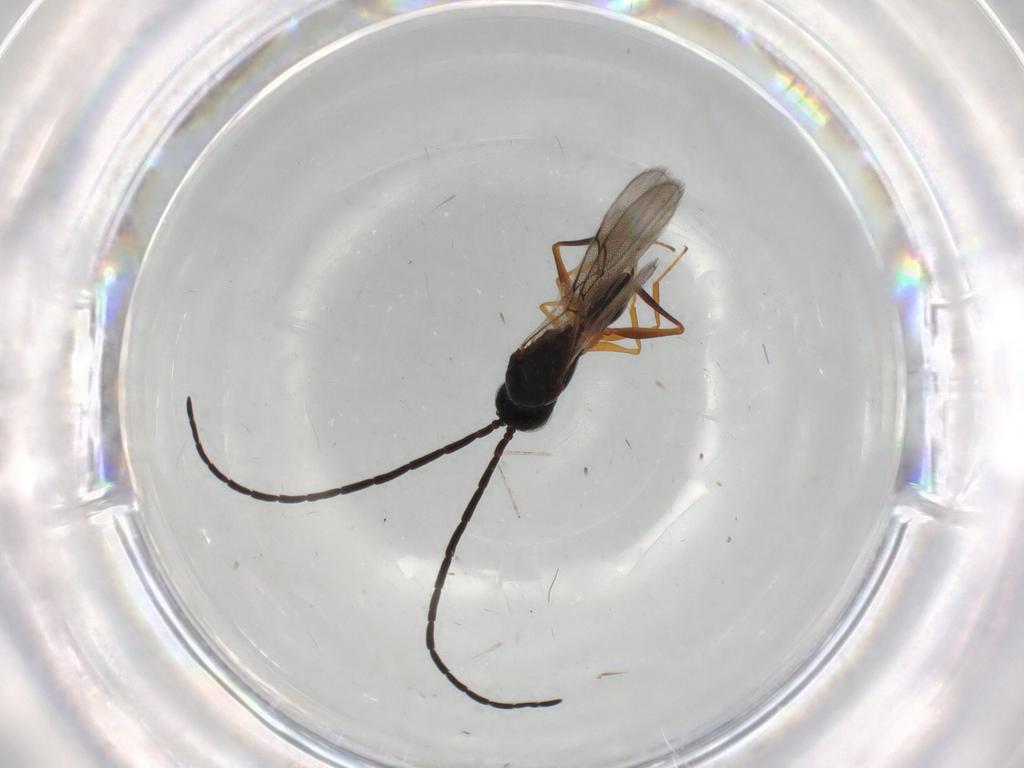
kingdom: Animalia
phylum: Arthropoda
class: Insecta
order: Hymenoptera
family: Figitidae
